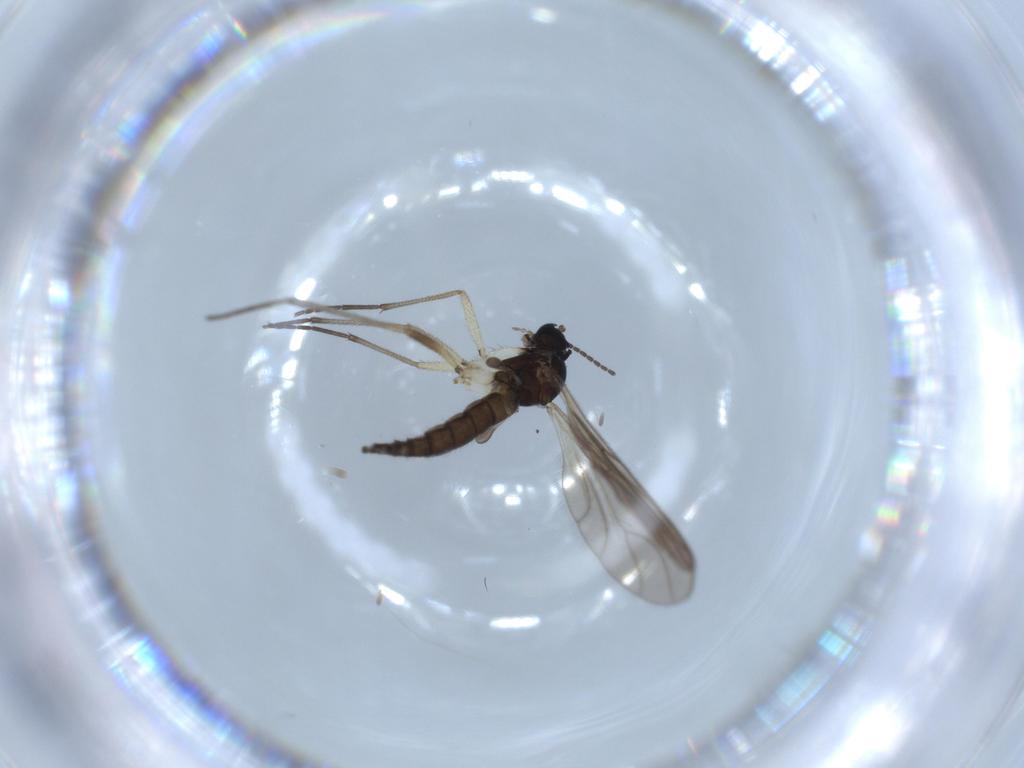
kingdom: Animalia
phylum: Arthropoda
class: Insecta
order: Diptera
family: Sciaridae
